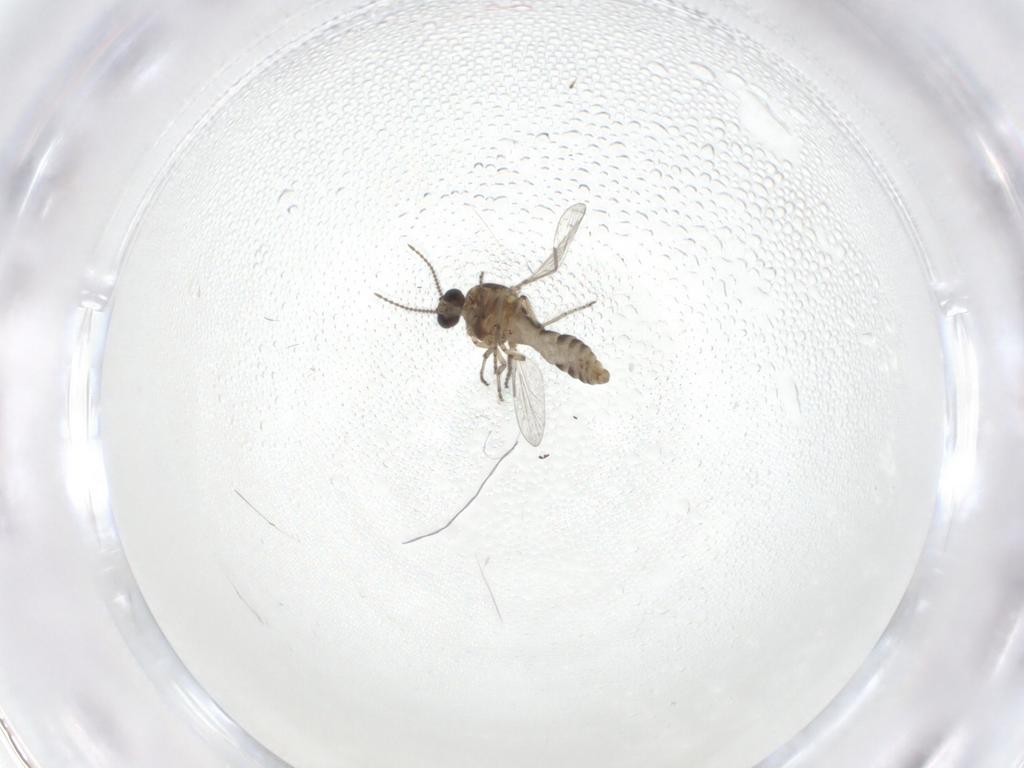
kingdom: Animalia
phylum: Arthropoda
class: Insecta
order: Diptera
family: Ceratopogonidae
